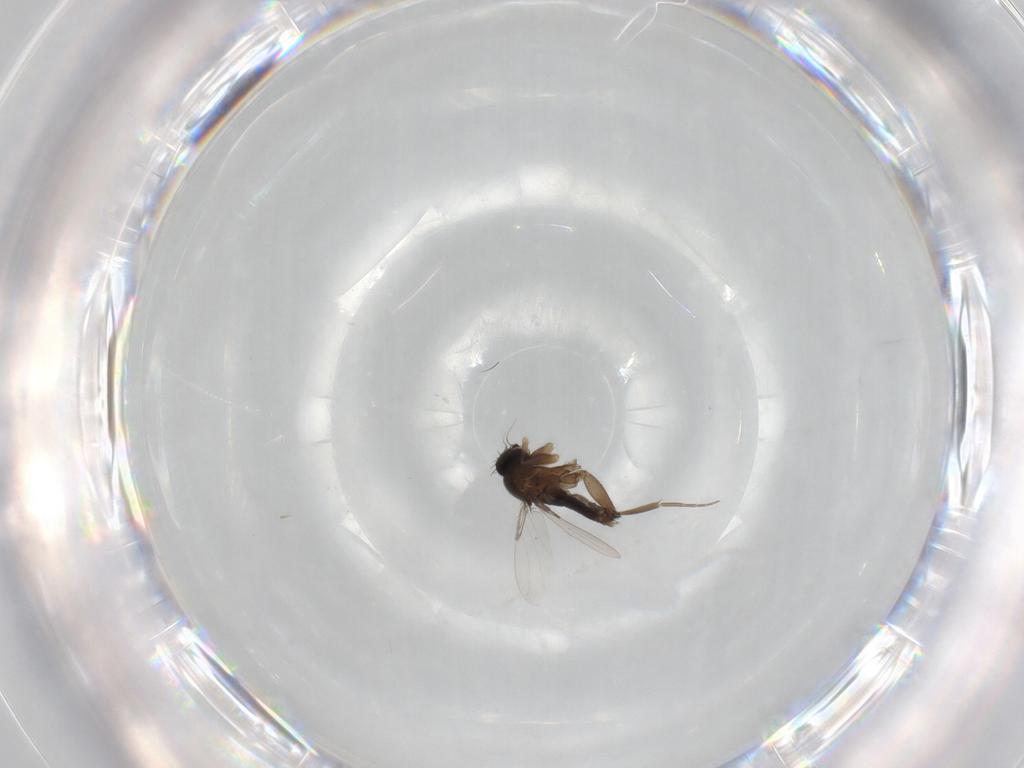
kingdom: Animalia
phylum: Arthropoda
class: Insecta
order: Diptera
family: Phoridae
